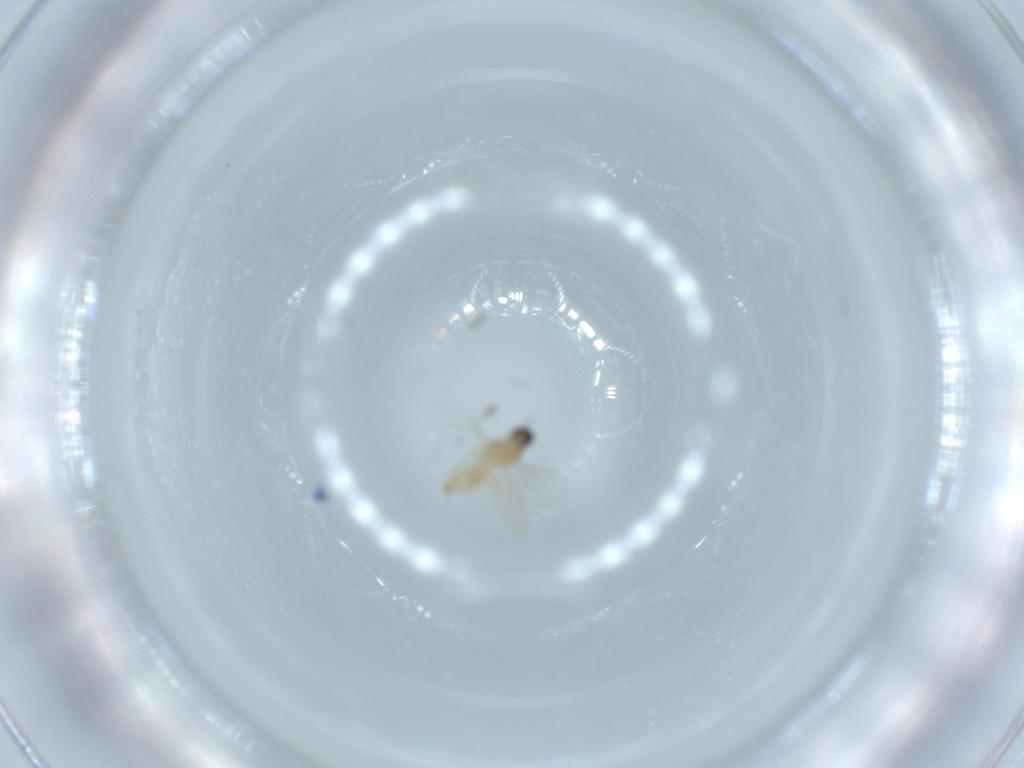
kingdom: Animalia
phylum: Arthropoda
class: Insecta
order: Diptera
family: Cecidomyiidae
